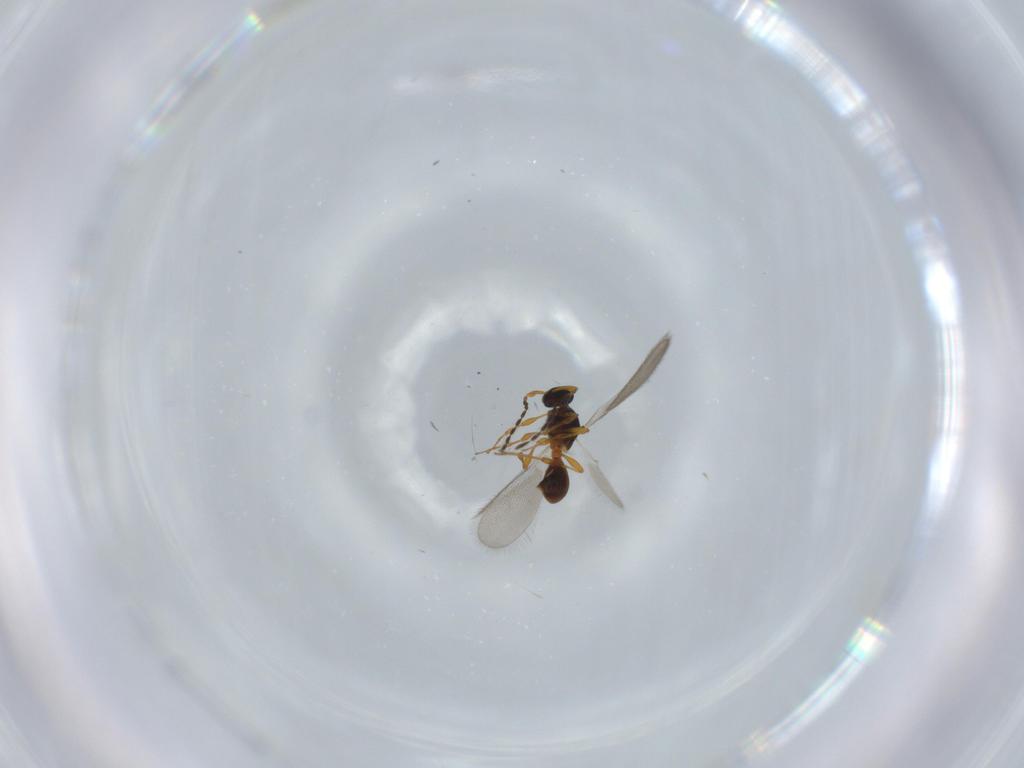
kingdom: Animalia
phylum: Arthropoda
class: Insecta
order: Hymenoptera
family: Platygastridae
